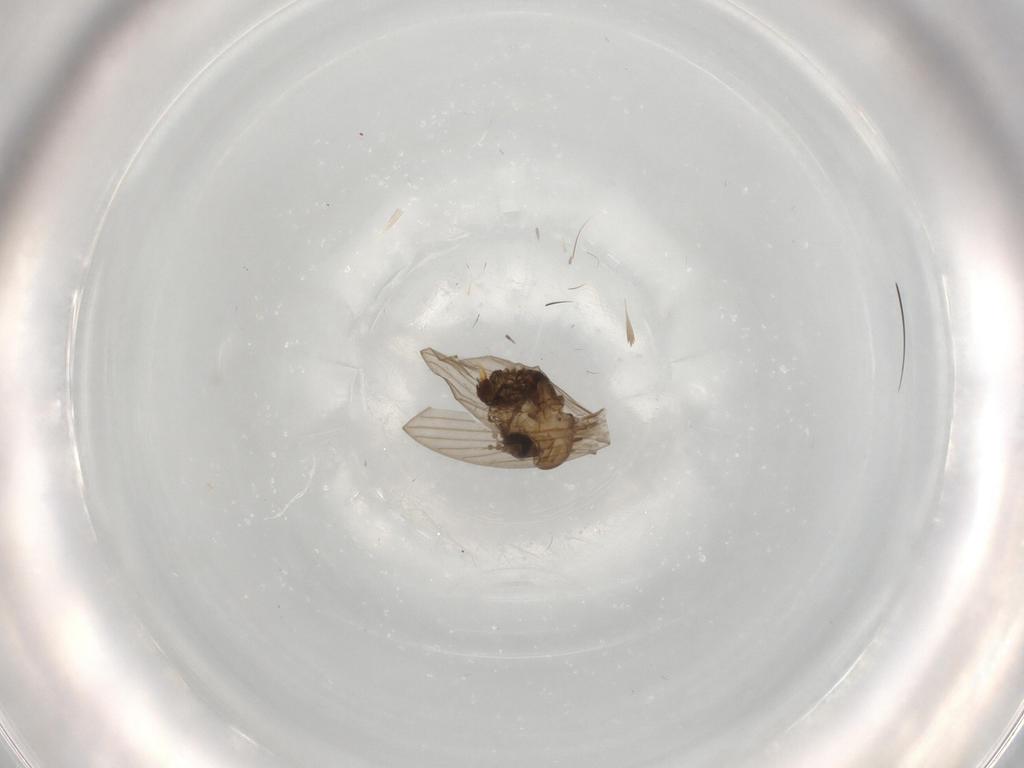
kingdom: Animalia
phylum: Arthropoda
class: Insecta
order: Diptera
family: Psychodidae
